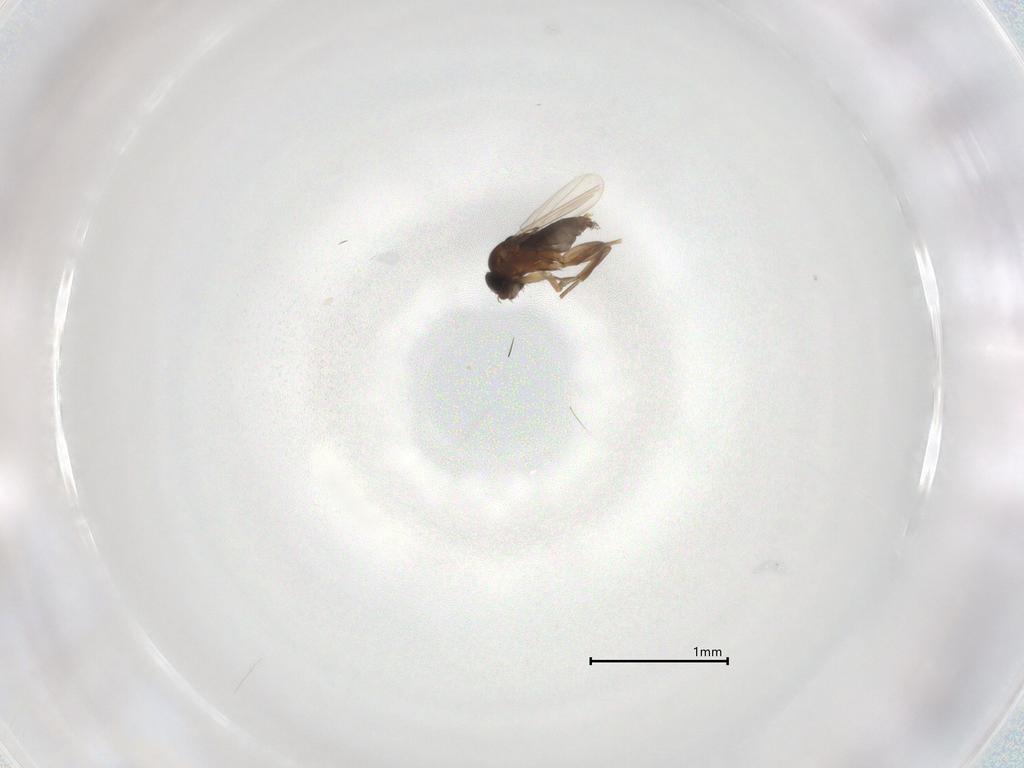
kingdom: Animalia
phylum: Arthropoda
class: Insecta
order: Diptera
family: Phoridae
